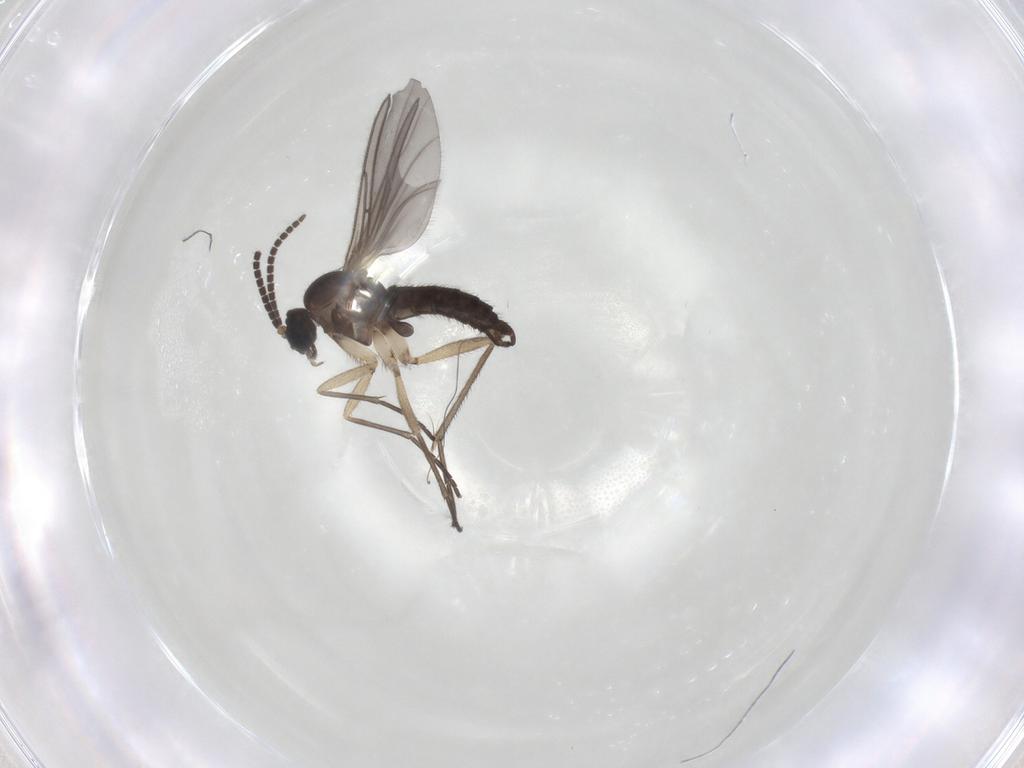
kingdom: Animalia
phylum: Arthropoda
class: Insecta
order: Diptera
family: Sciaridae
